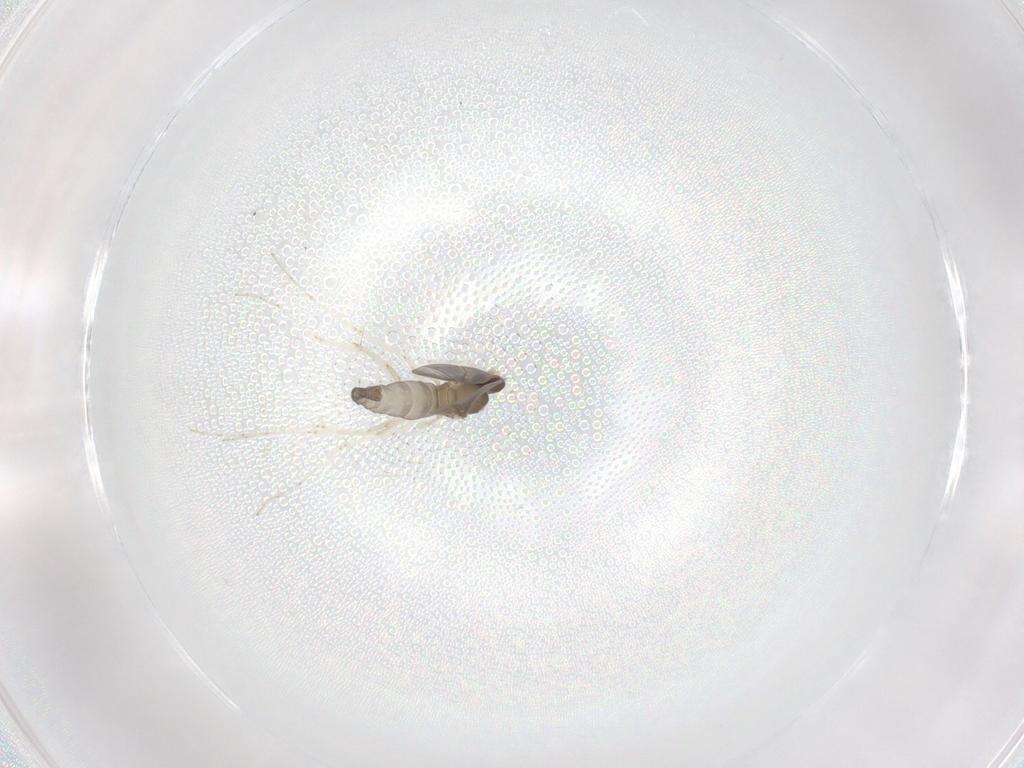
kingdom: Animalia
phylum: Arthropoda
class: Insecta
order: Diptera
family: Cecidomyiidae
